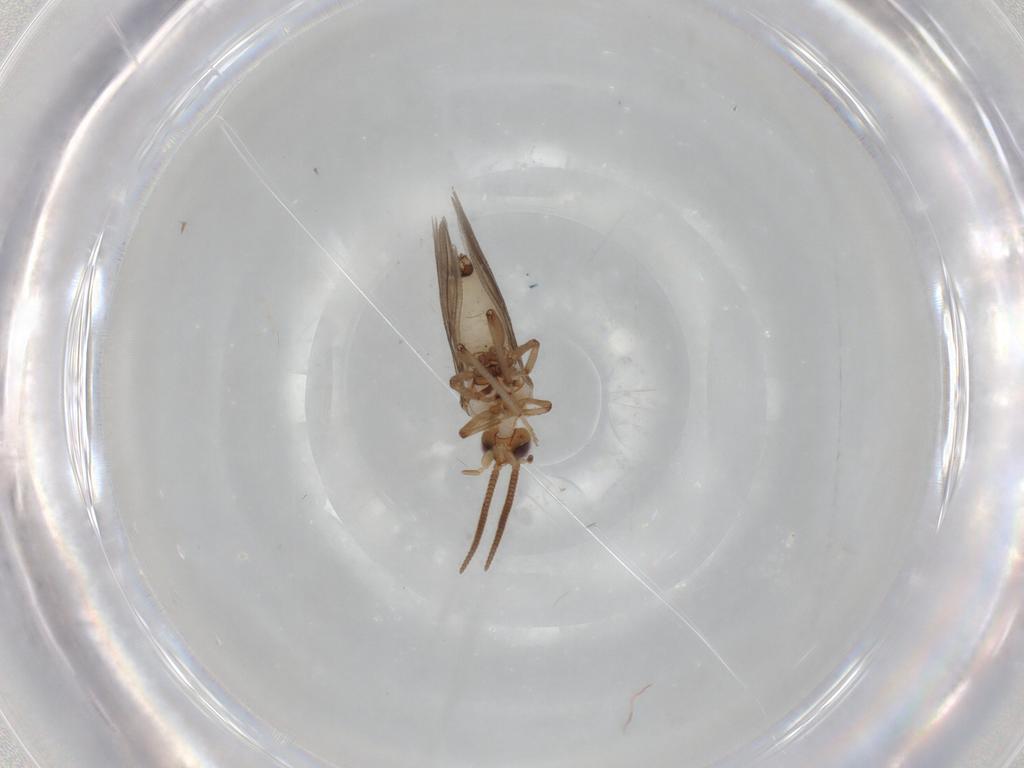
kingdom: Animalia
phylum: Arthropoda
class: Insecta
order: Neuroptera
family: Coniopterygidae
